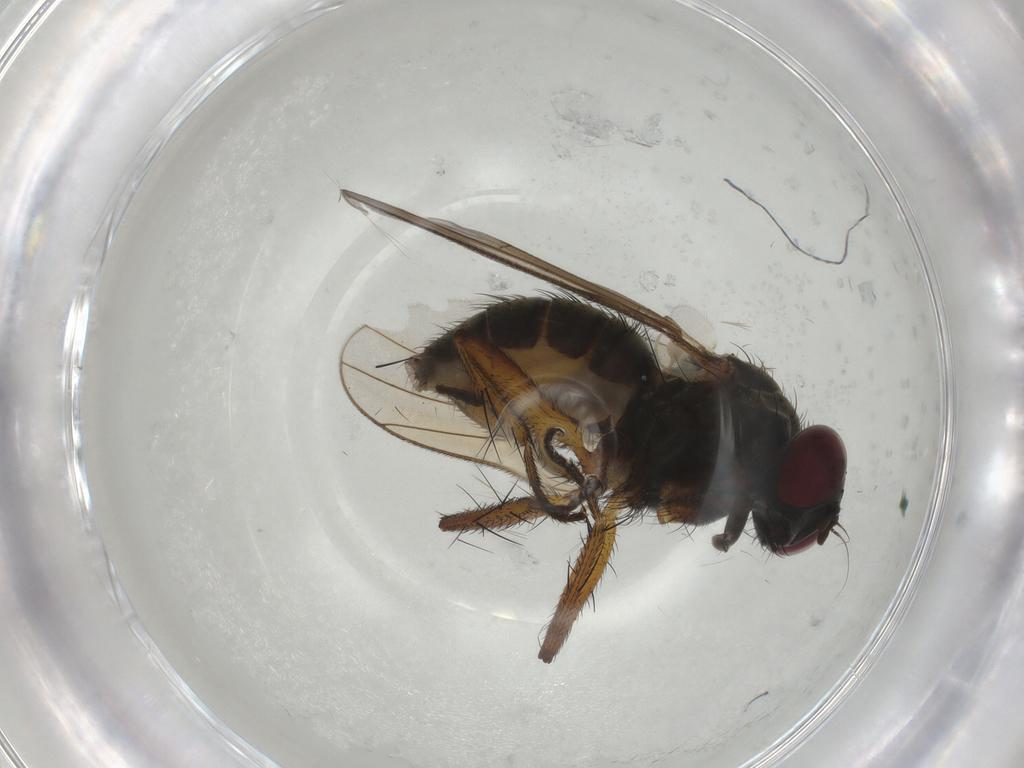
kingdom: Animalia
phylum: Arthropoda
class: Insecta
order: Diptera
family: Muscidae
